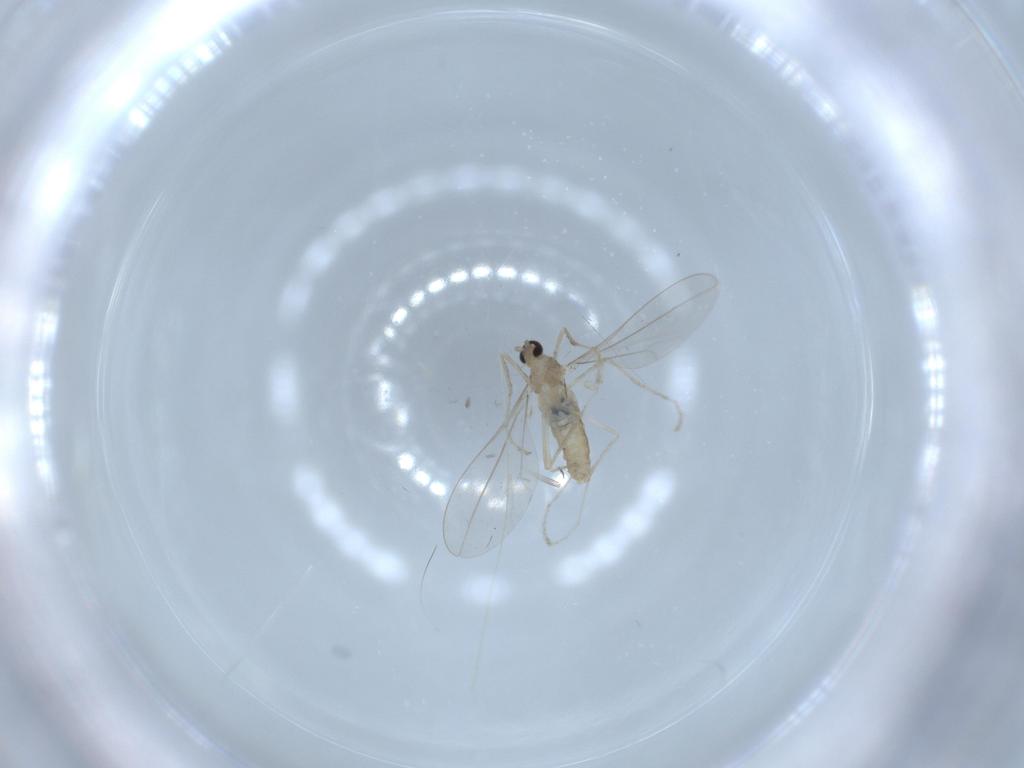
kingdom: Animalia
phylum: Arthropoda
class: Insecta
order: Diptera
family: Cecidomyiidae
